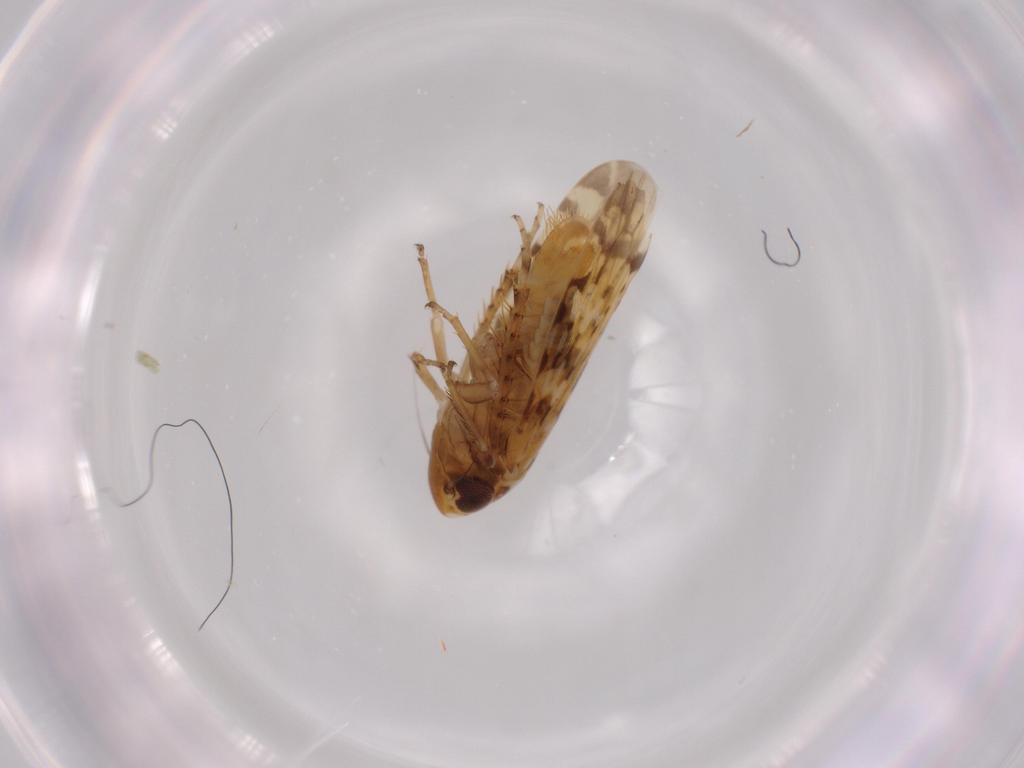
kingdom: Animalia
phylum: Arthropoda
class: Insecta
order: Hemiptera
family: Cicadellidae
